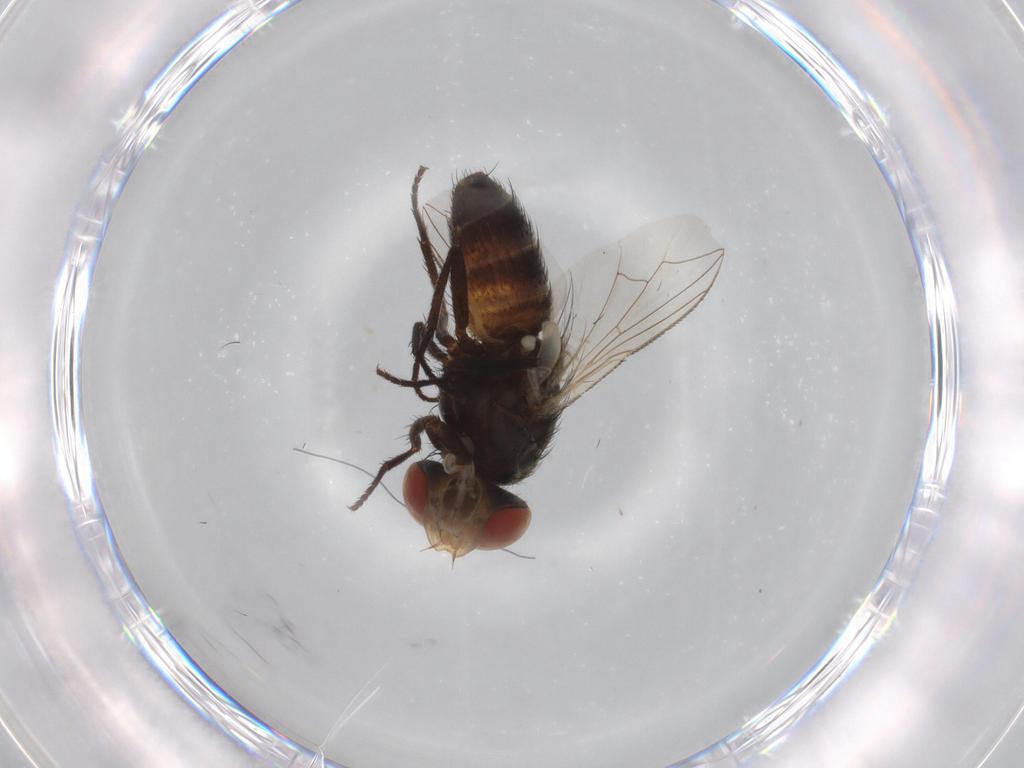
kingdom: Animalia
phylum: Arthropoda
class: Insecta
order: Diptera
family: Sarcophagidae
